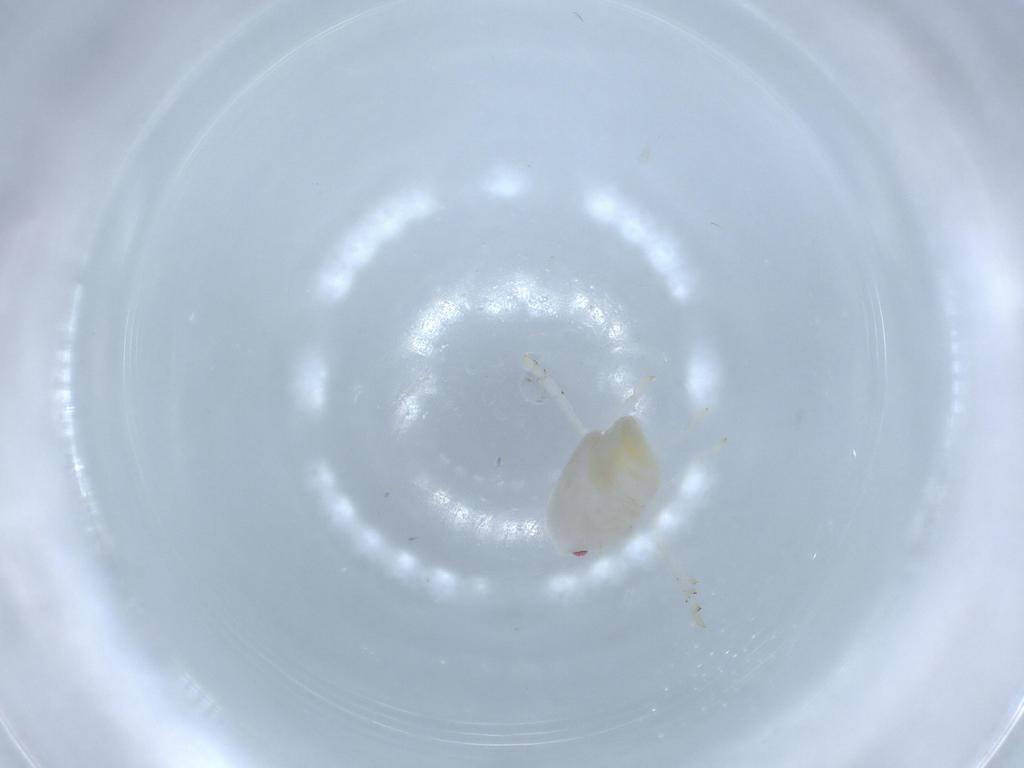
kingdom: Animalia
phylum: Arthropoda
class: Insecta
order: Hemiptera
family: Flatidae
